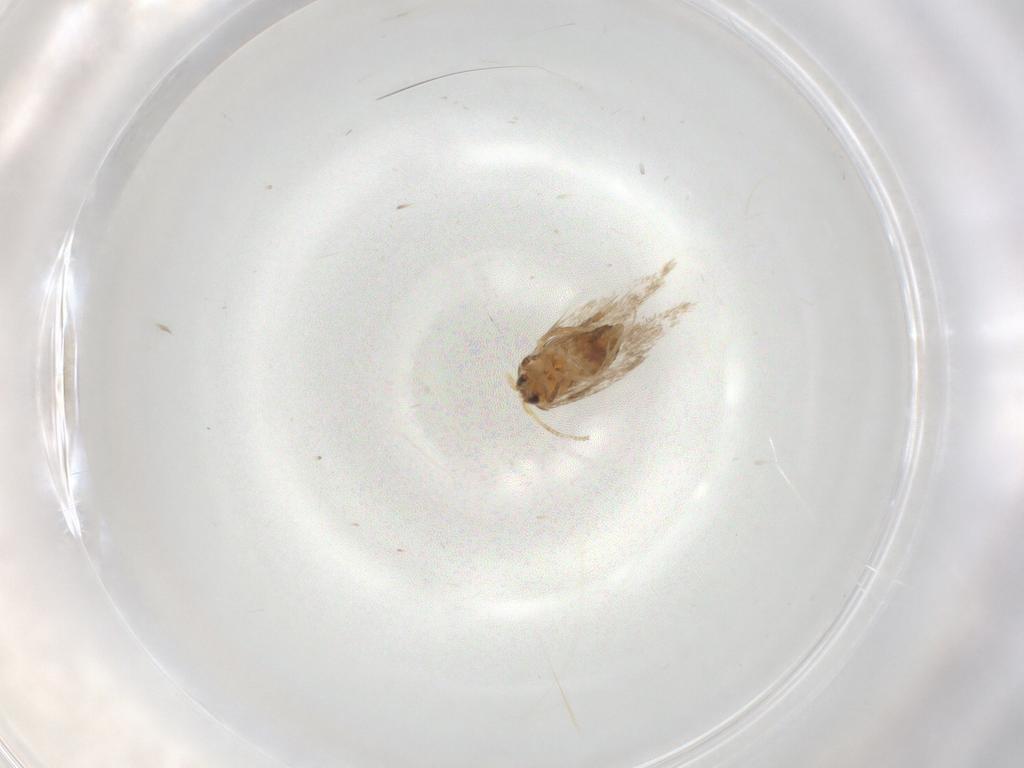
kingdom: Animalia
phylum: Arthropoda
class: Insecta
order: Lepidoptera
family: Nepticulidae
